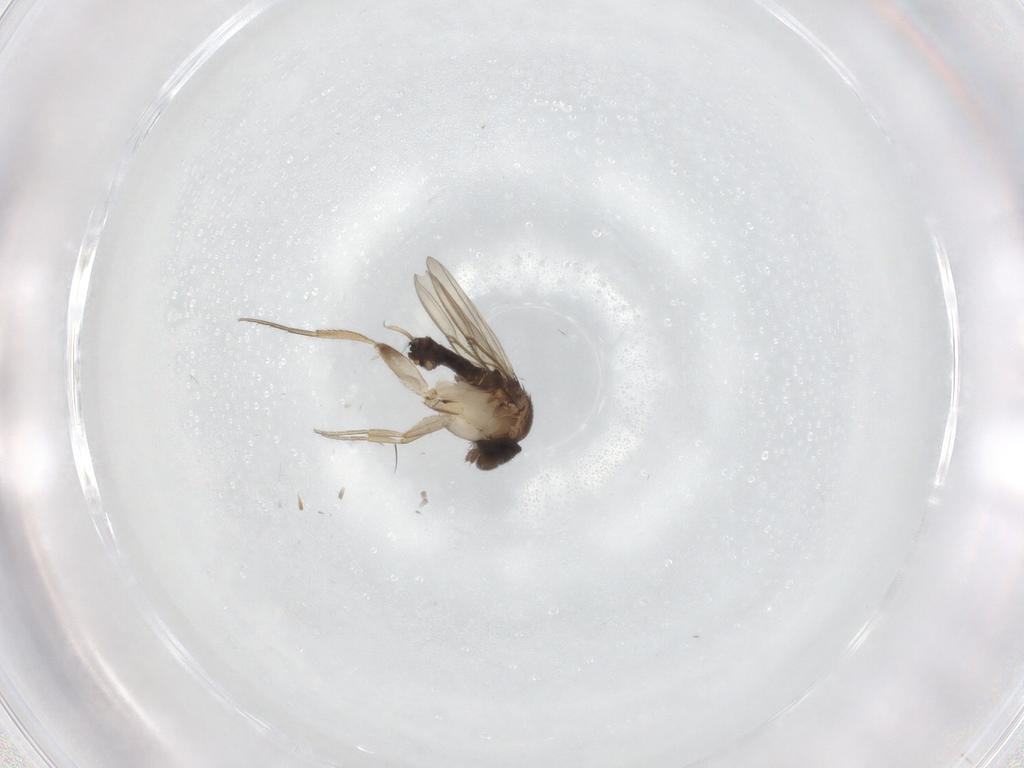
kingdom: Animalia
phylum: Arthropoda
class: Insecta
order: Diptera
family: Phoridae
